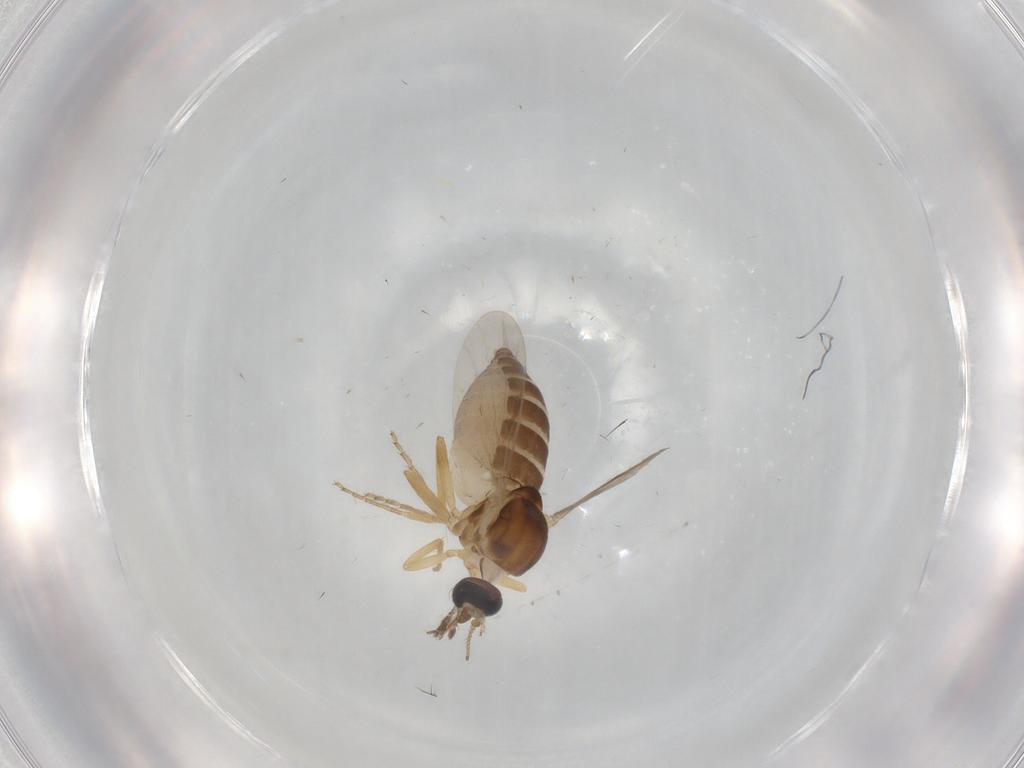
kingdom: Animalia
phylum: Arthropoda
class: Insecta
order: Diptera
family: Ceratopogonidae
